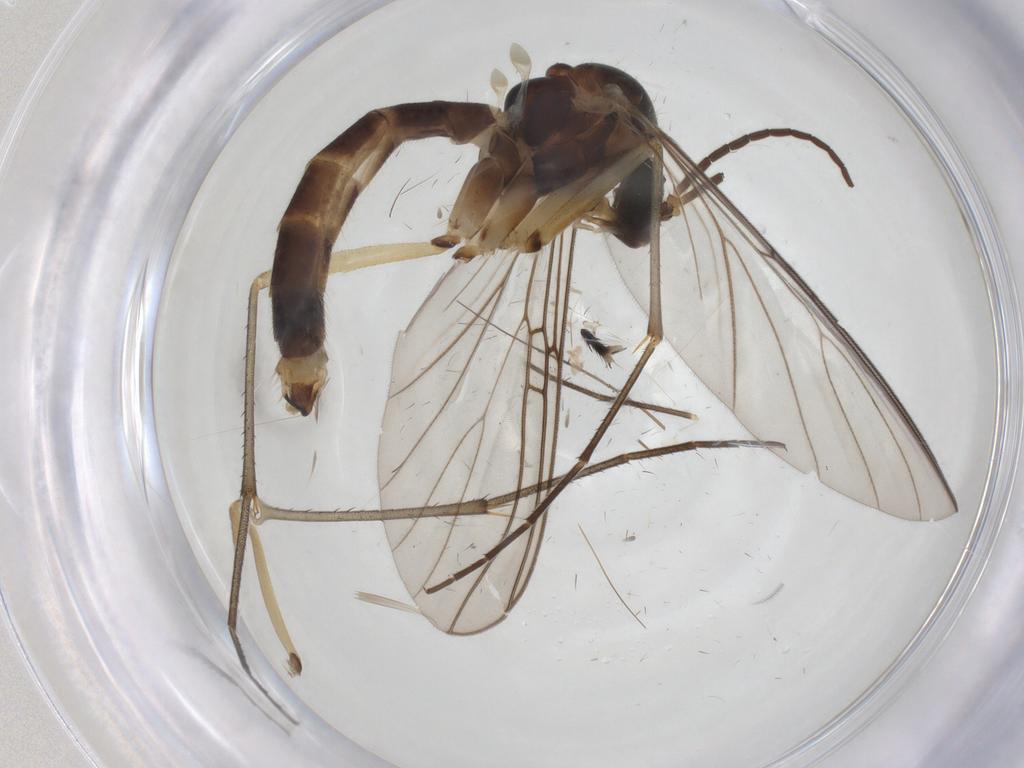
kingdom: Animalia
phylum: Arthropoda
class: Insecta
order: Diptera
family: Mycetophilidae
